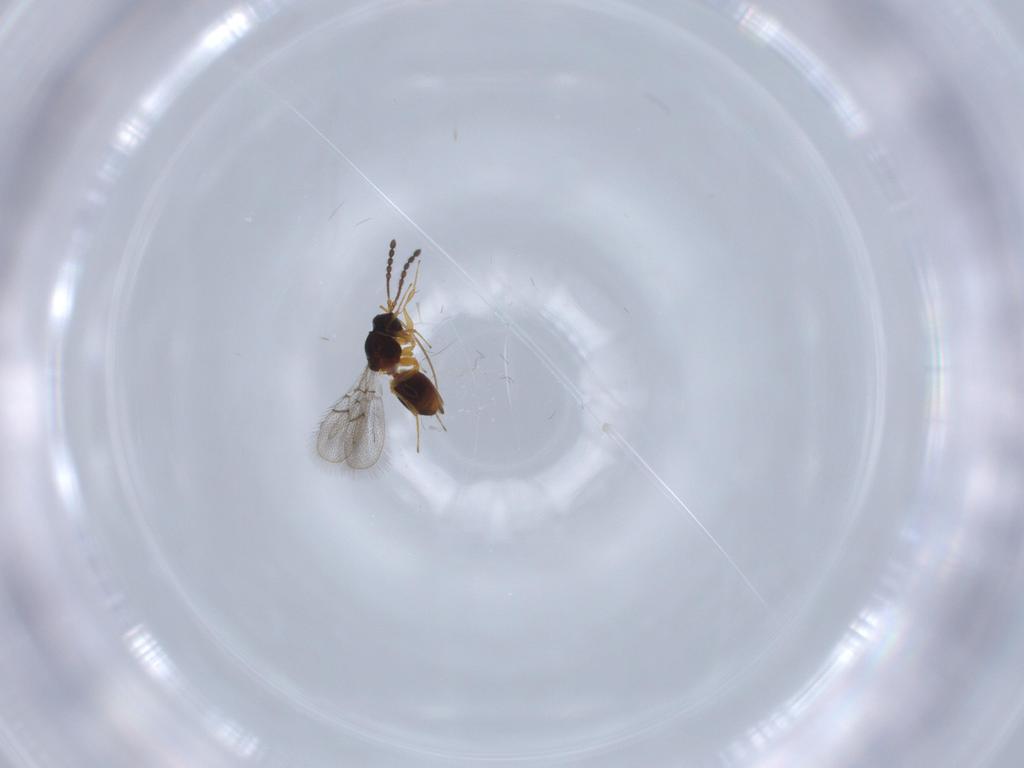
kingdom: Animalia
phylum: Arthropoda
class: Insecta
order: Hymenoptera
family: Figitidae
